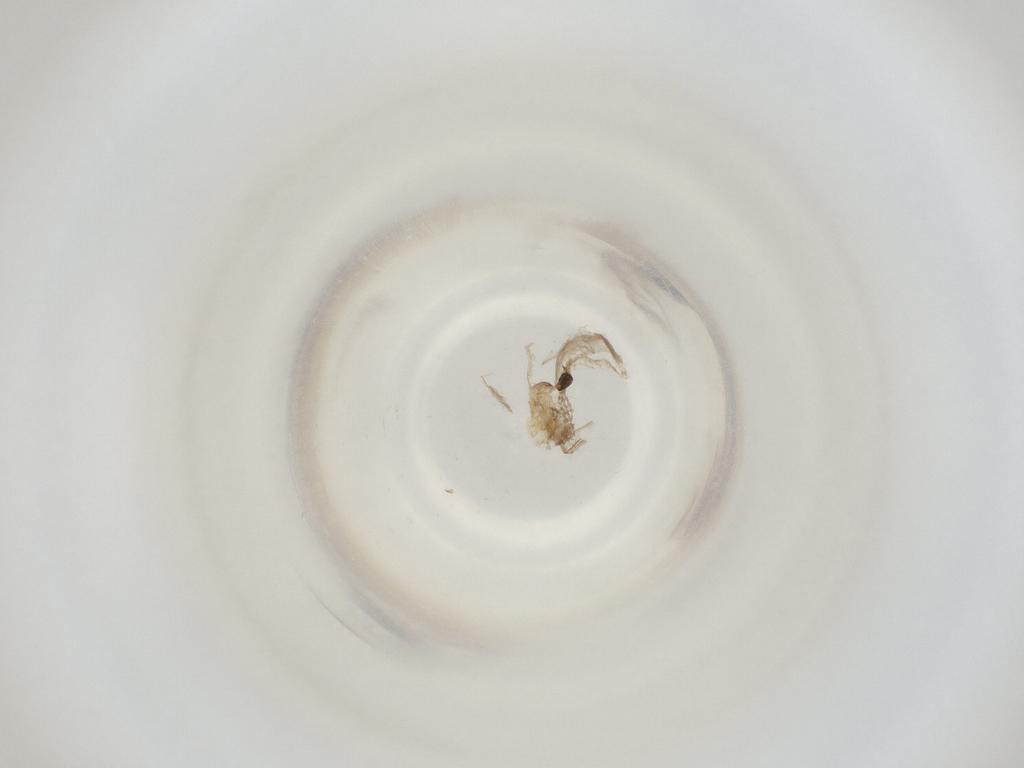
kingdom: Animalia
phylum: Arthropoda
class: Insecta
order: Diptera
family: Cecidomyiidae
